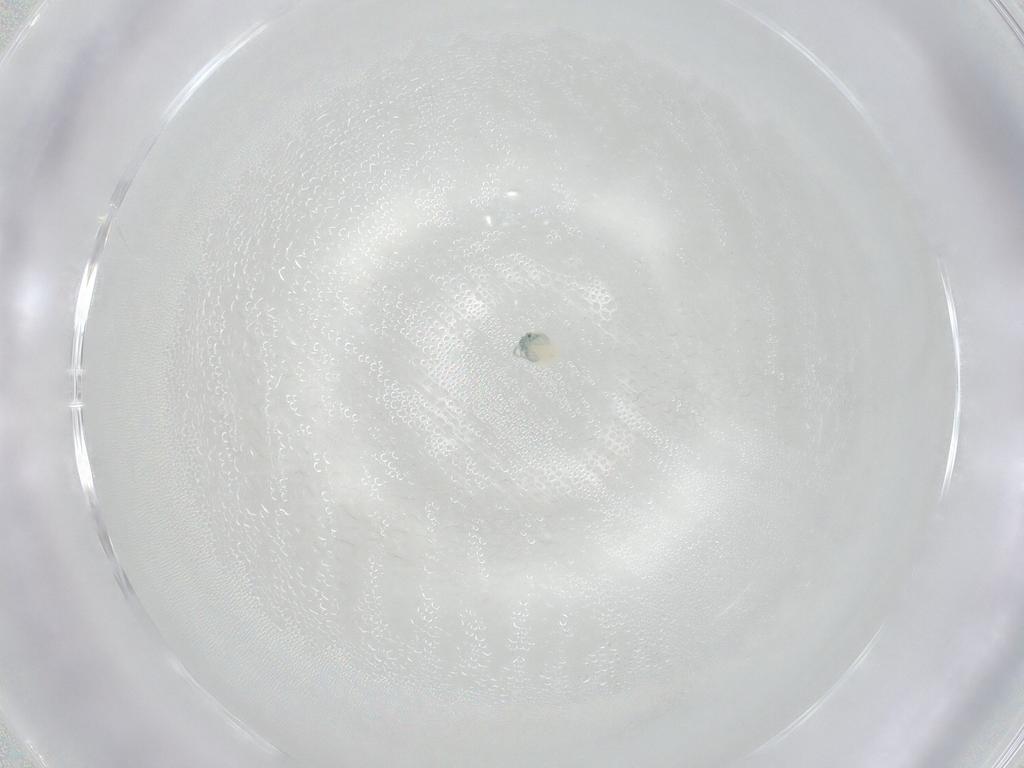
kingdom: Animalia
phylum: Arthropoda
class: Arachnida
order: Trombidiformes
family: Arrenuridae
